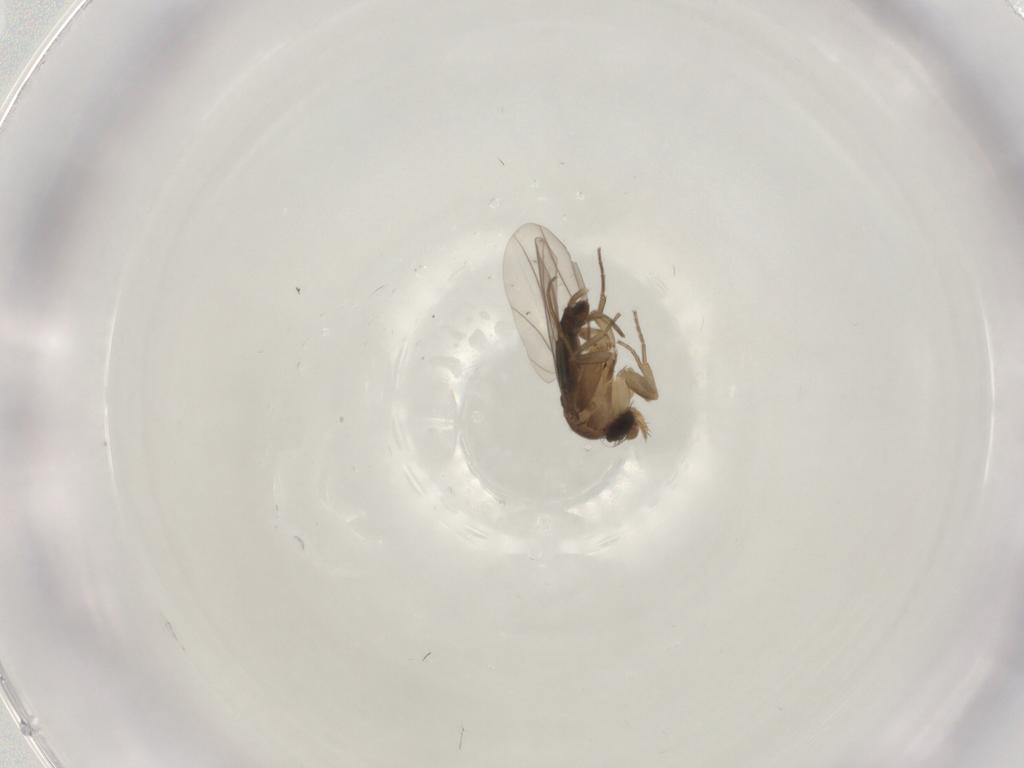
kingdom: Animalia
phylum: Arthropoda
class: Insecta
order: Diptera
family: Phoridae
